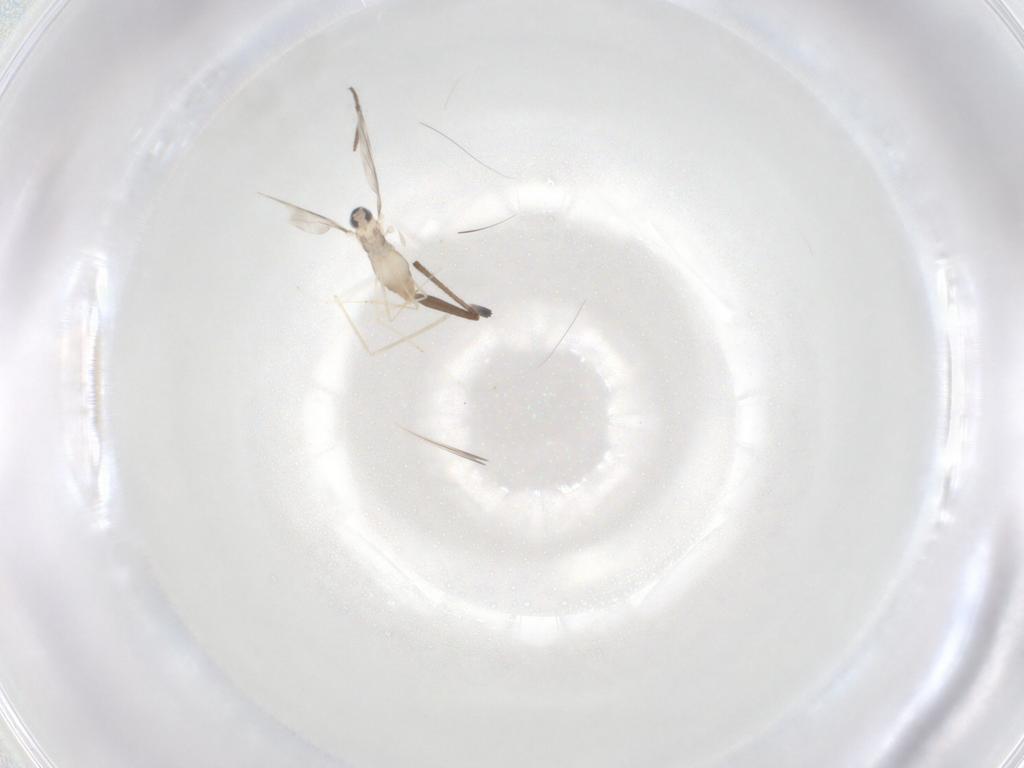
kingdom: Animalia
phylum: Arthropoda
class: Insecta
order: Diptera
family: Cecidomyiidae
